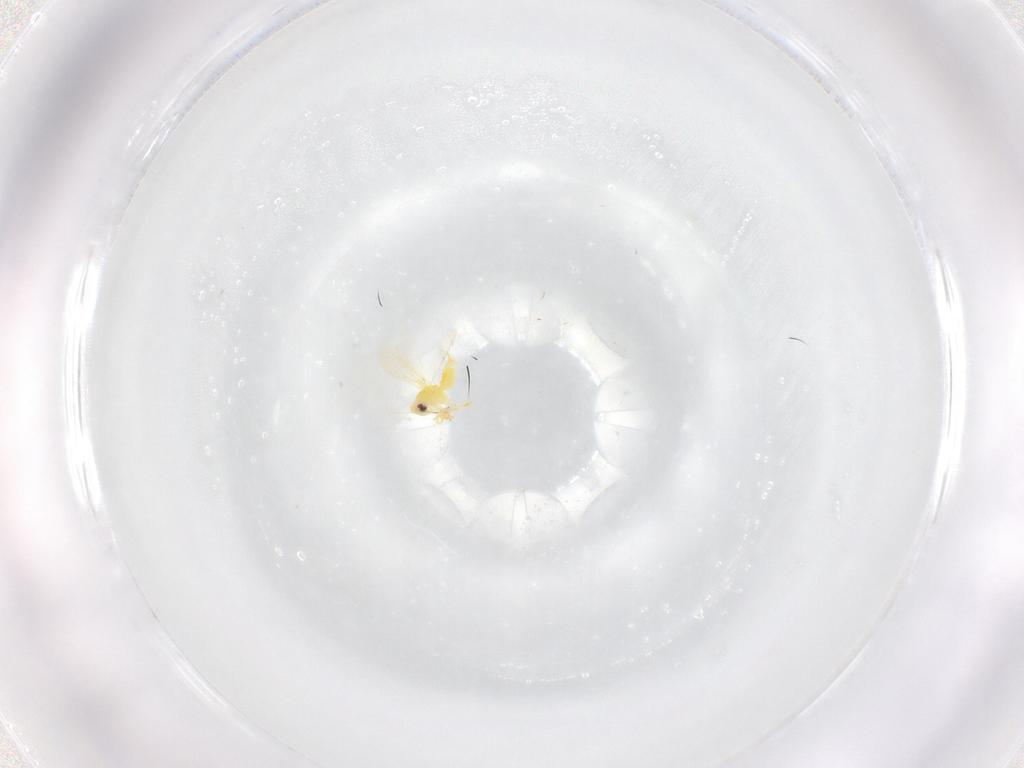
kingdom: Animalia
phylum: Arthropoda
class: Insecta
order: Hemiptera
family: Aleyrodidae
